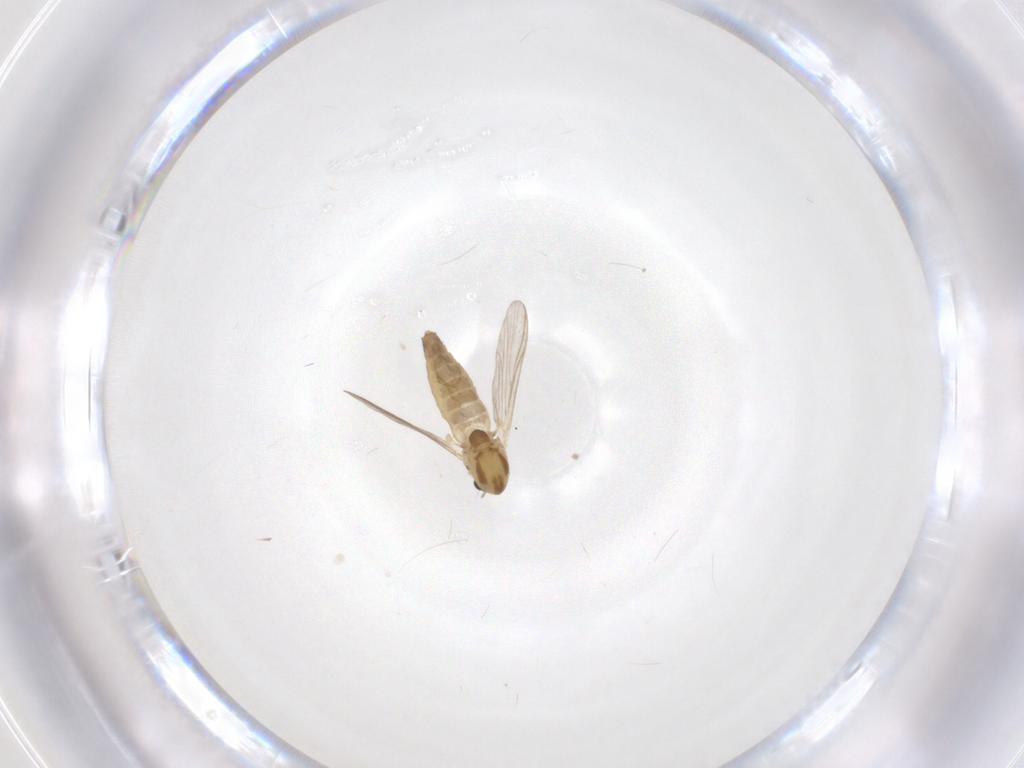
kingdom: Animalia
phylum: Arthropoda
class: Insecta
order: Diptera
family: Chironomidae
